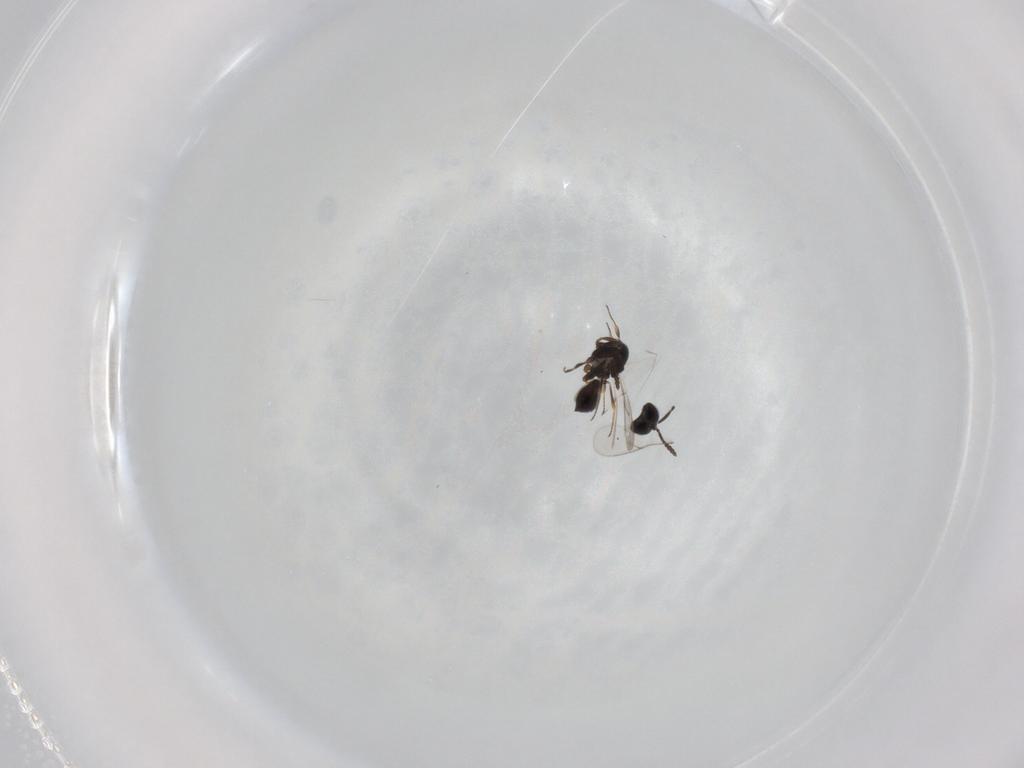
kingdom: Animalia
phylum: Arthropoda
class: Insecta
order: Hymenoptera
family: Scelionidae
